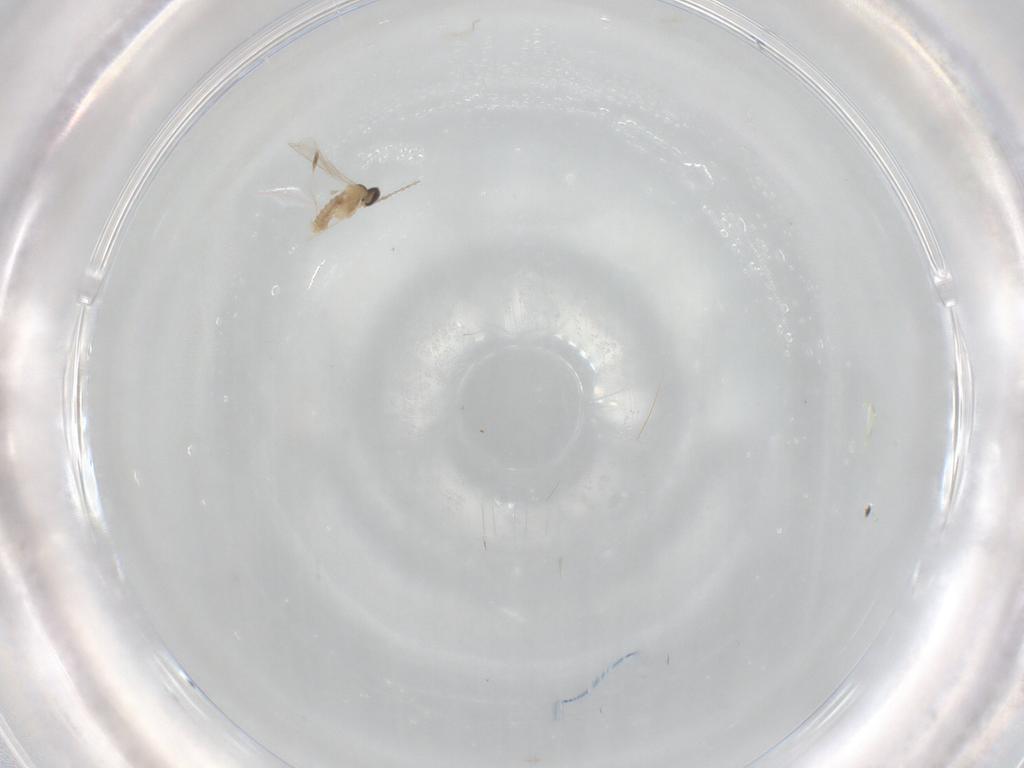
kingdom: Animalia
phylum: Arthropoda
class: Insecta
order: Diptera
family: Cecidomyiidae
